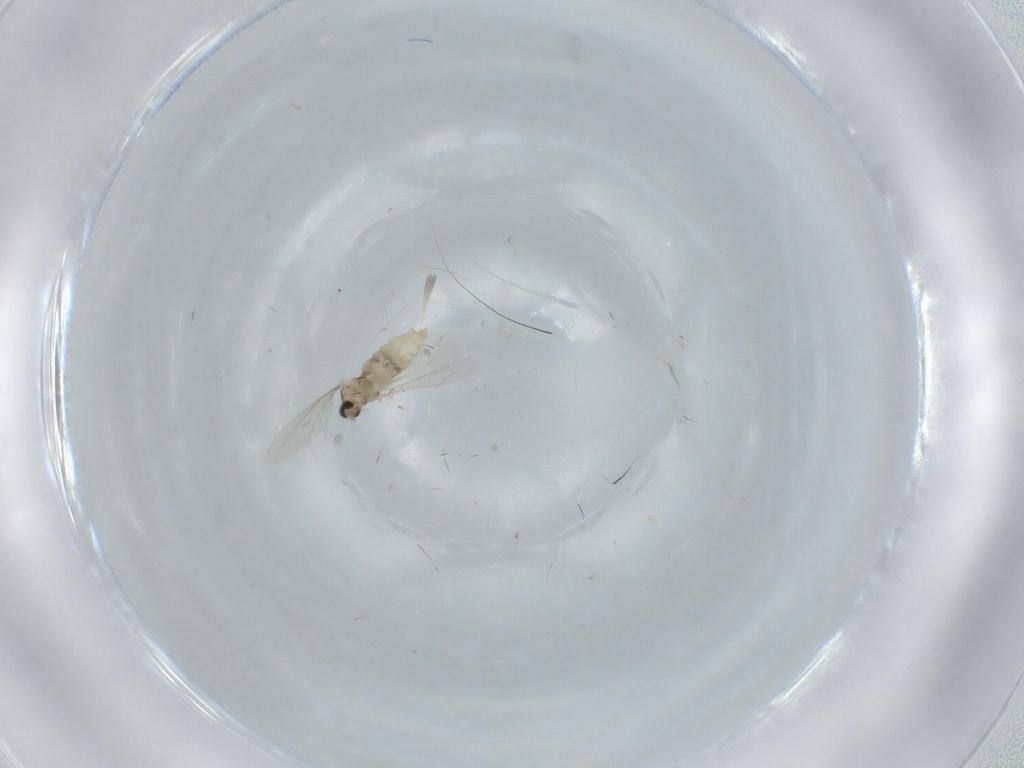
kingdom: Animalia
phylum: Arthropoda
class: Insecta
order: Diptera
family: Cecidomyiidae
